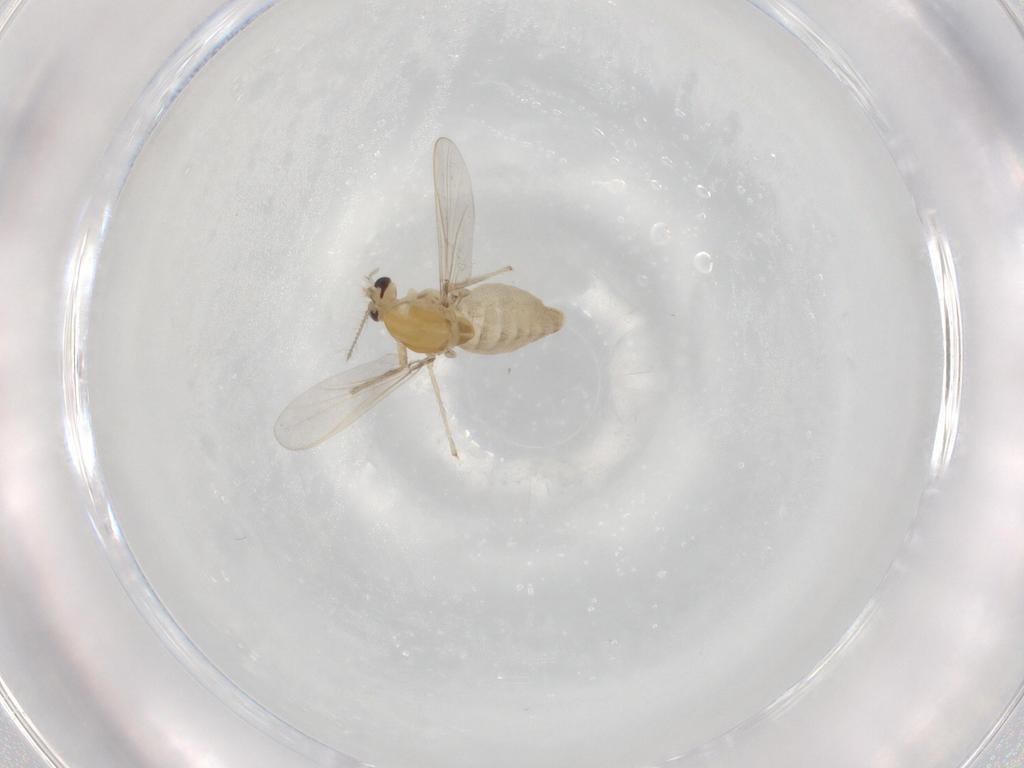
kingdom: Animalia
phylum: Arthropoda
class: Insecta
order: Diptera
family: Chironomidae
